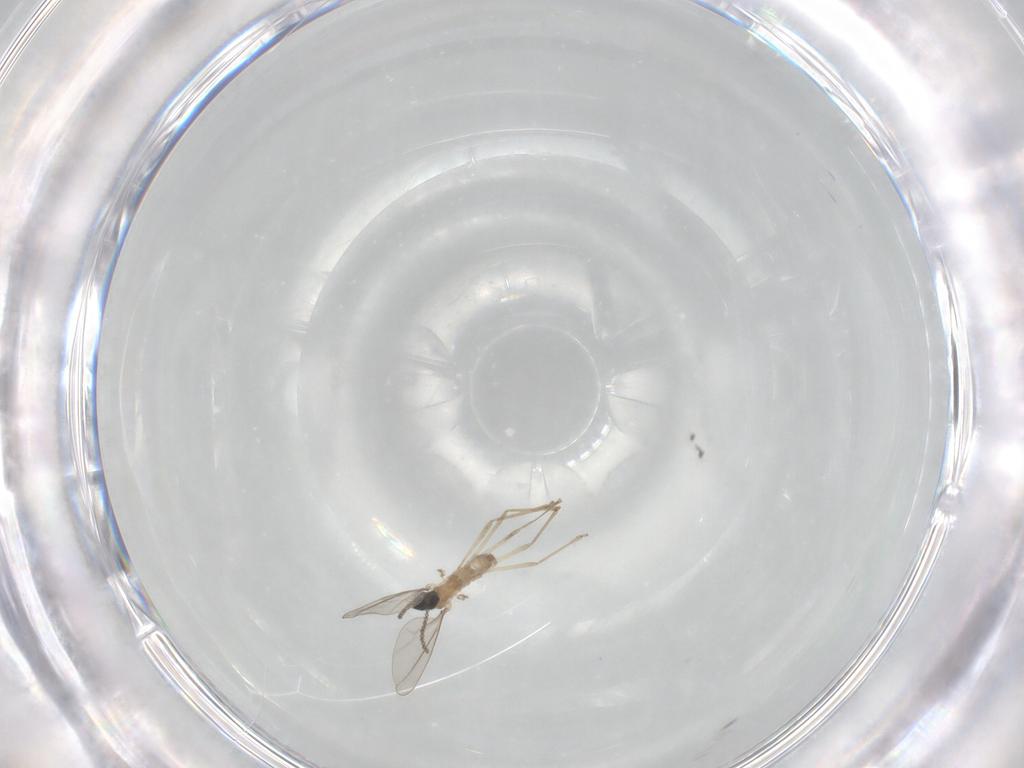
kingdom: Animalia
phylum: Arthropoda
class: Insecta
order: Diptera
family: Cecidomyiidae
